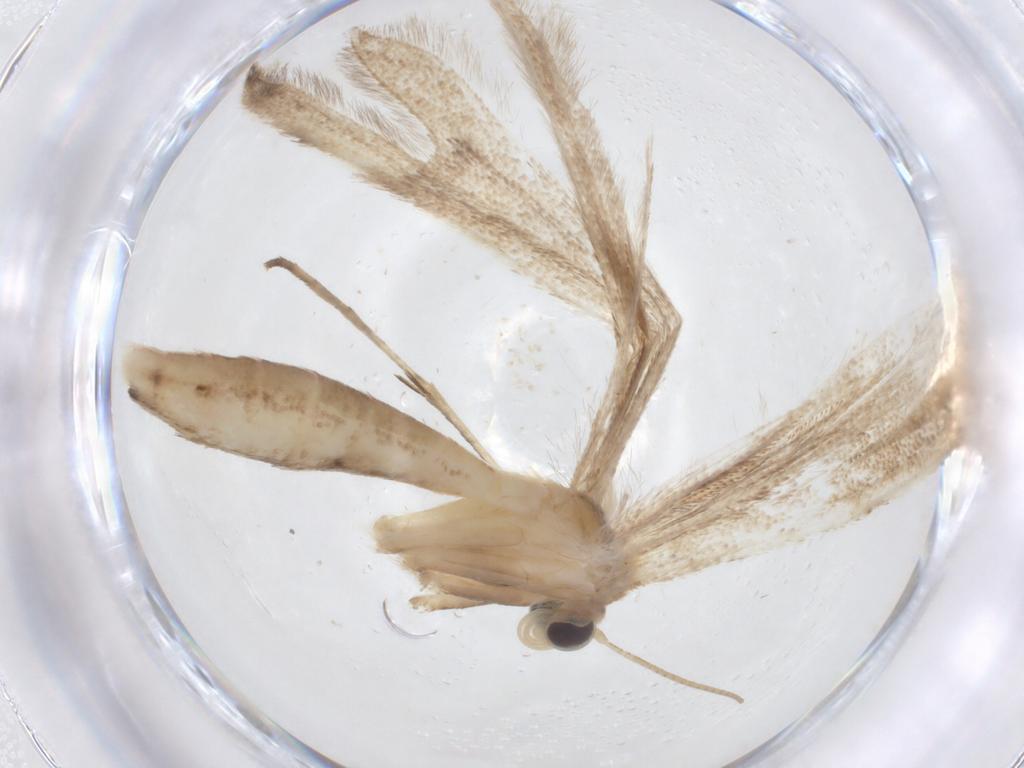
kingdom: Animalia
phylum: Arthropoda
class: Insecta
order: Lepidoptera
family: Pterophoridae
